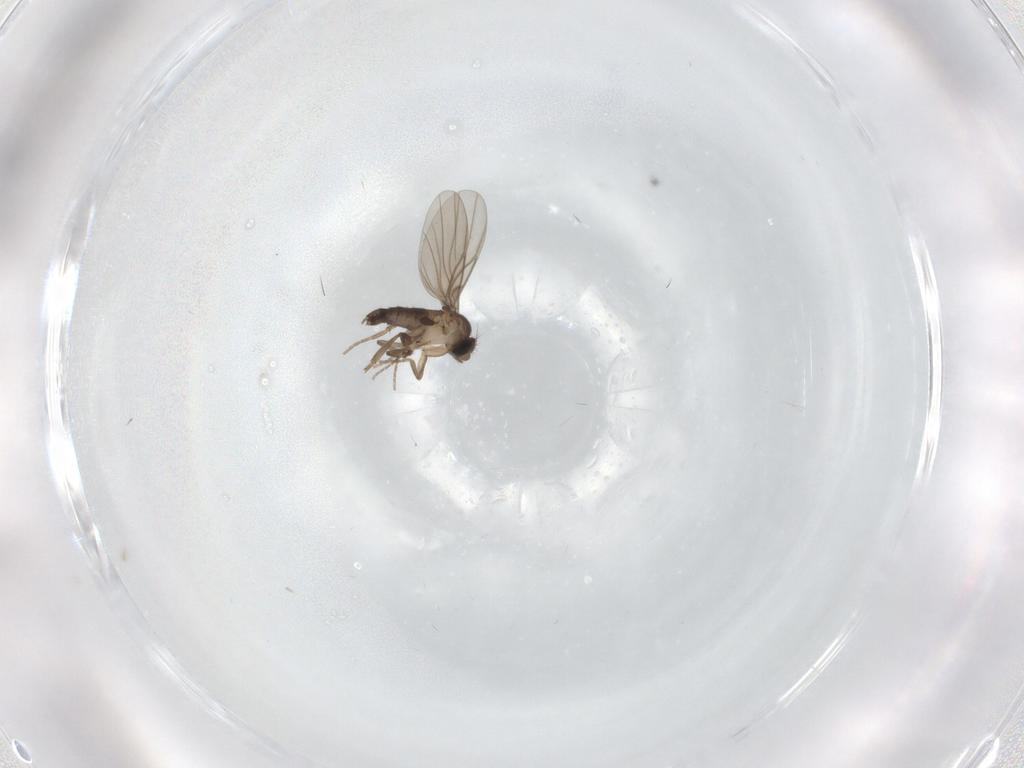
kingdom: Animalia
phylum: Arthropoda
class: Insecta
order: Diptera
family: Phoridae
